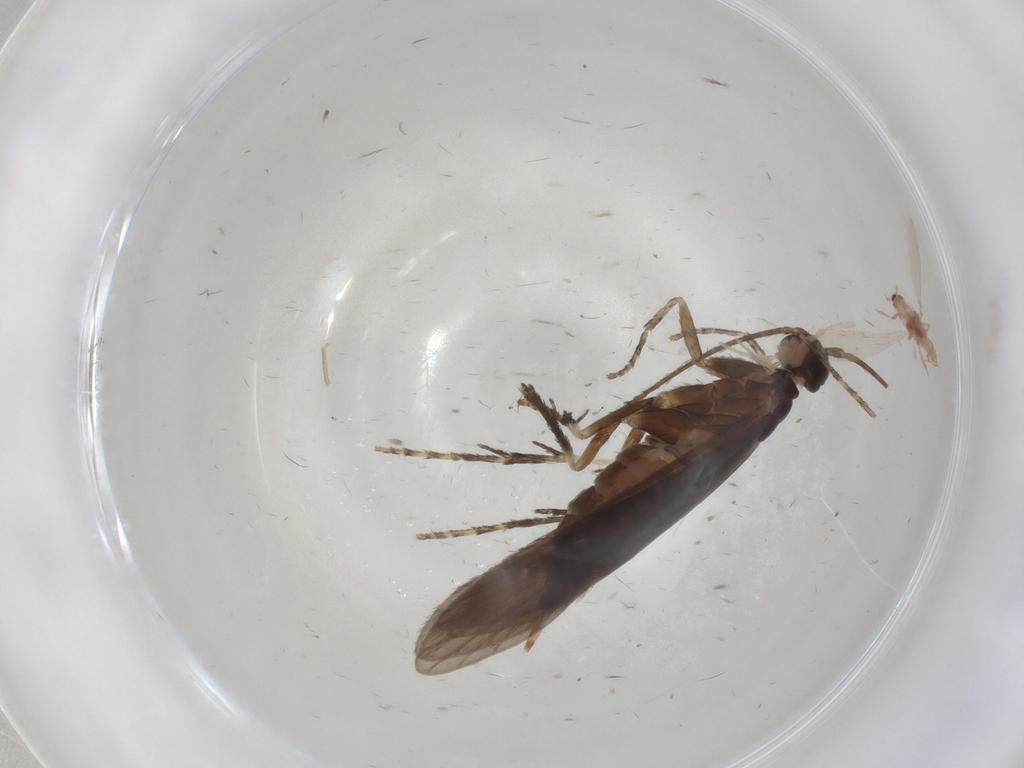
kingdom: Animalia
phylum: Arthropoda
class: Insecta
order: Trichoptera
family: Xiphocentronidae
